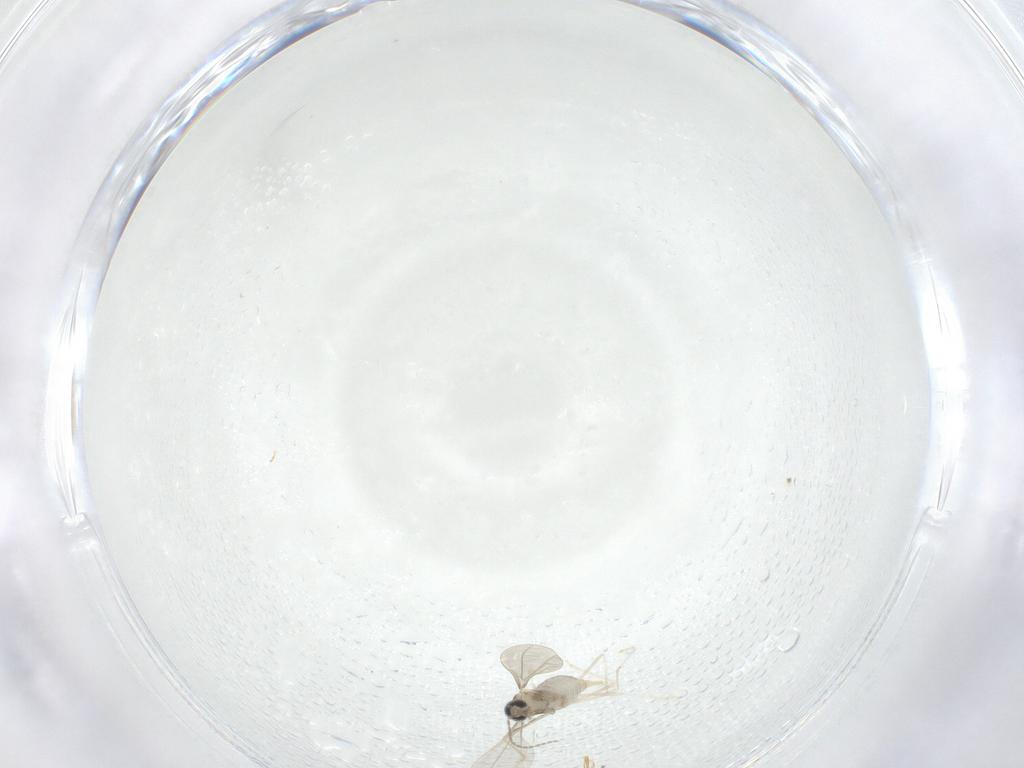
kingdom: Animalia
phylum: Arthropoda
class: Insecta
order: Diptera
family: Cecidomyiidae
